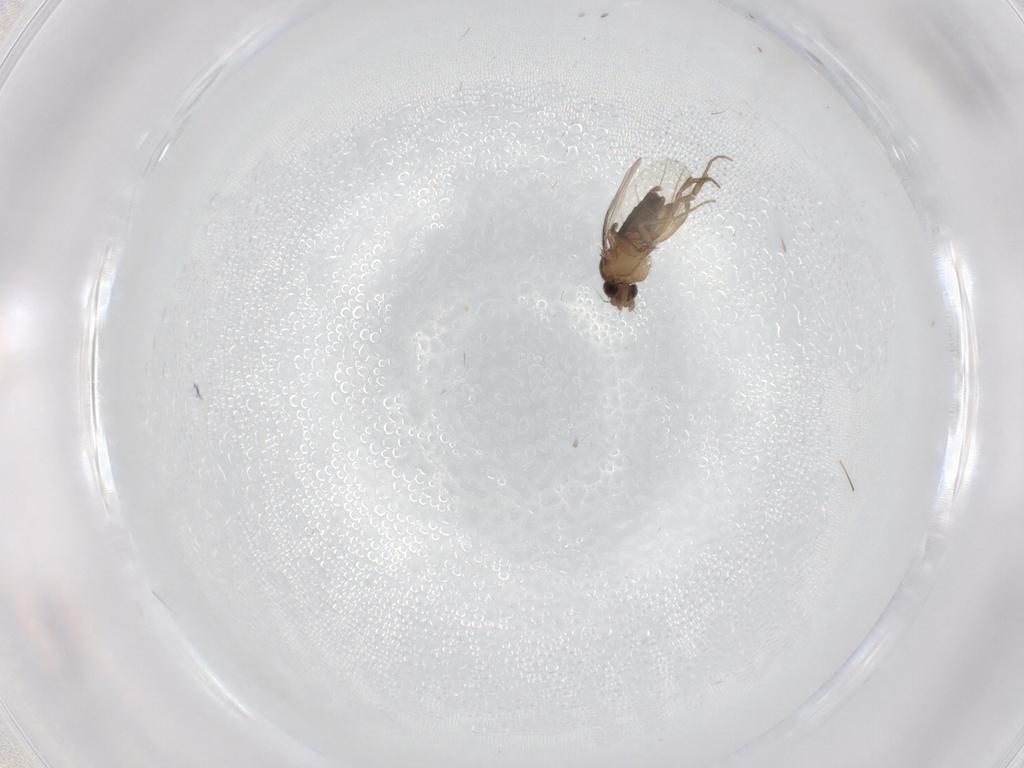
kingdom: Animalia
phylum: Arthropoda
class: Insecta
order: Diptera
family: Phoridae
